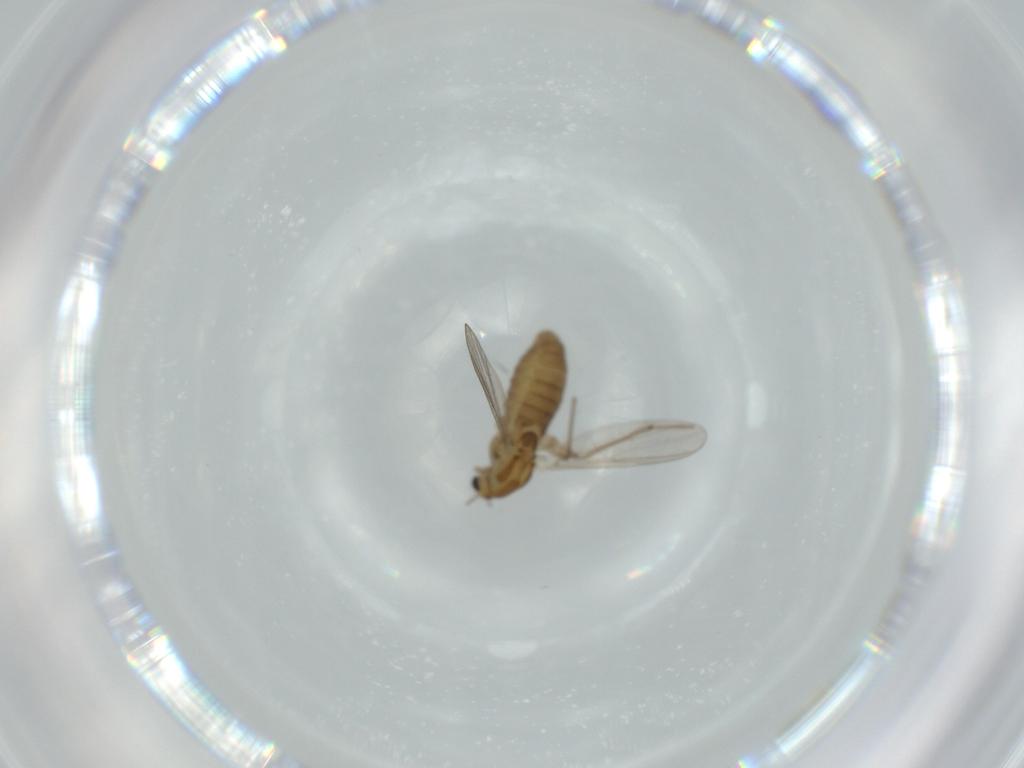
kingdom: Animalia
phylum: Arthropoda
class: Insecta
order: Diptera
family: Chironomidae
